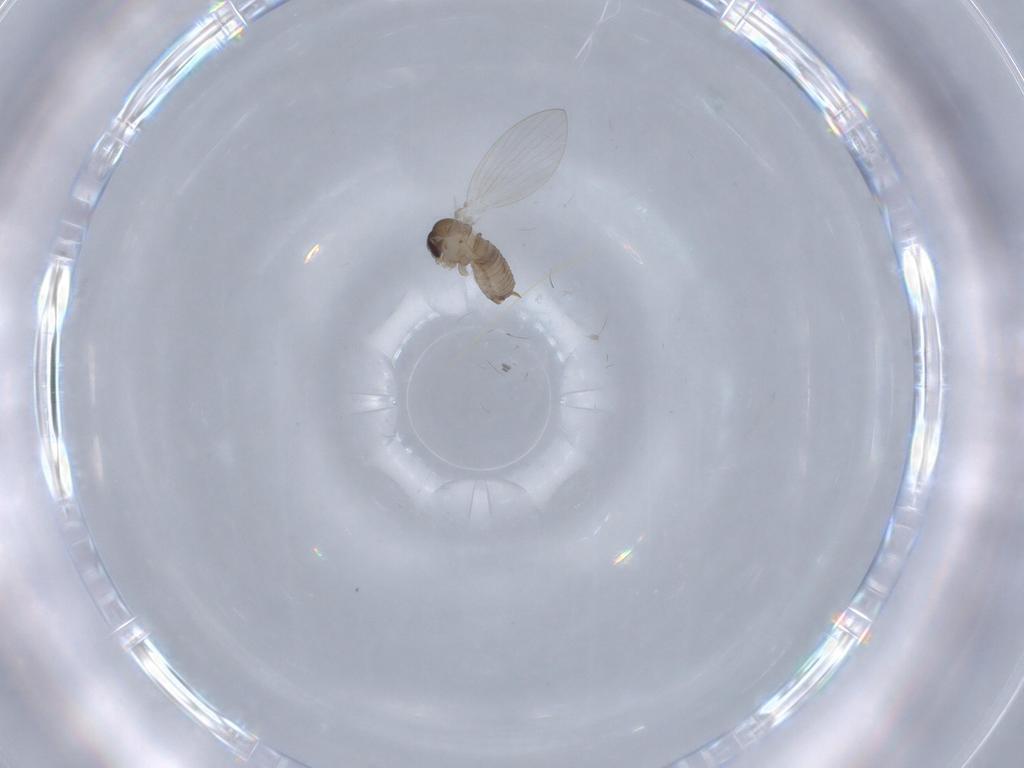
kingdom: Animalia
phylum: Arthropoda
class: Insecta
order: Diptera
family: Psychodidae
